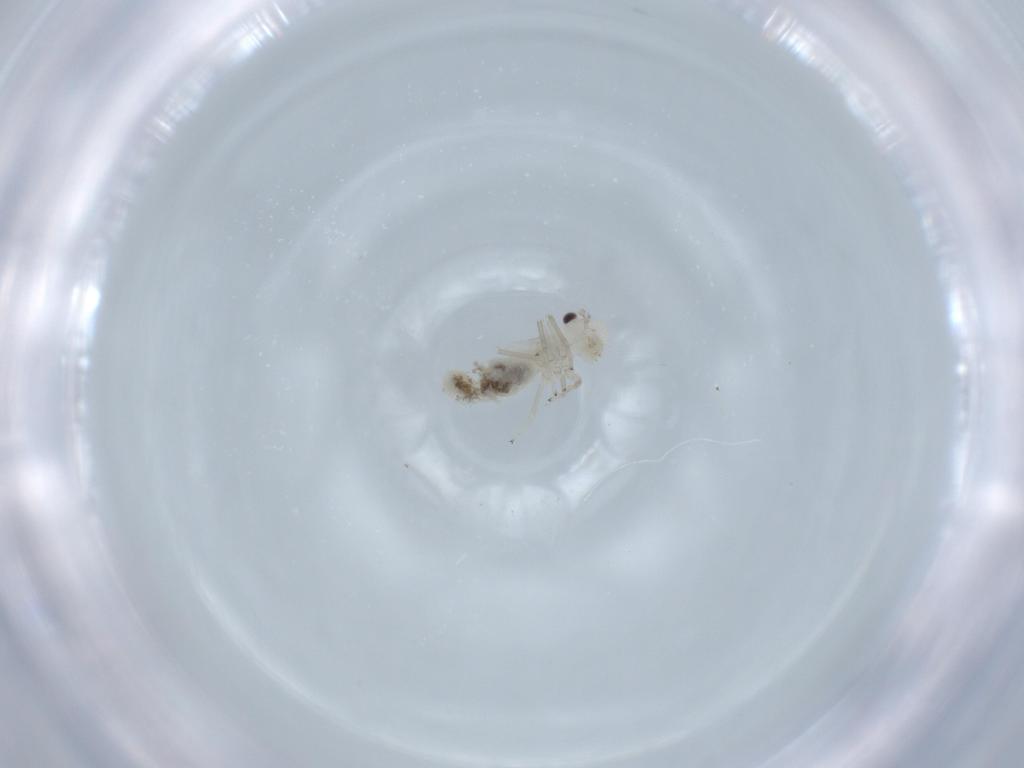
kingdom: Animalia
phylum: Arthropoda
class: Insecta
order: Psocodea
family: Caeciliusidae
